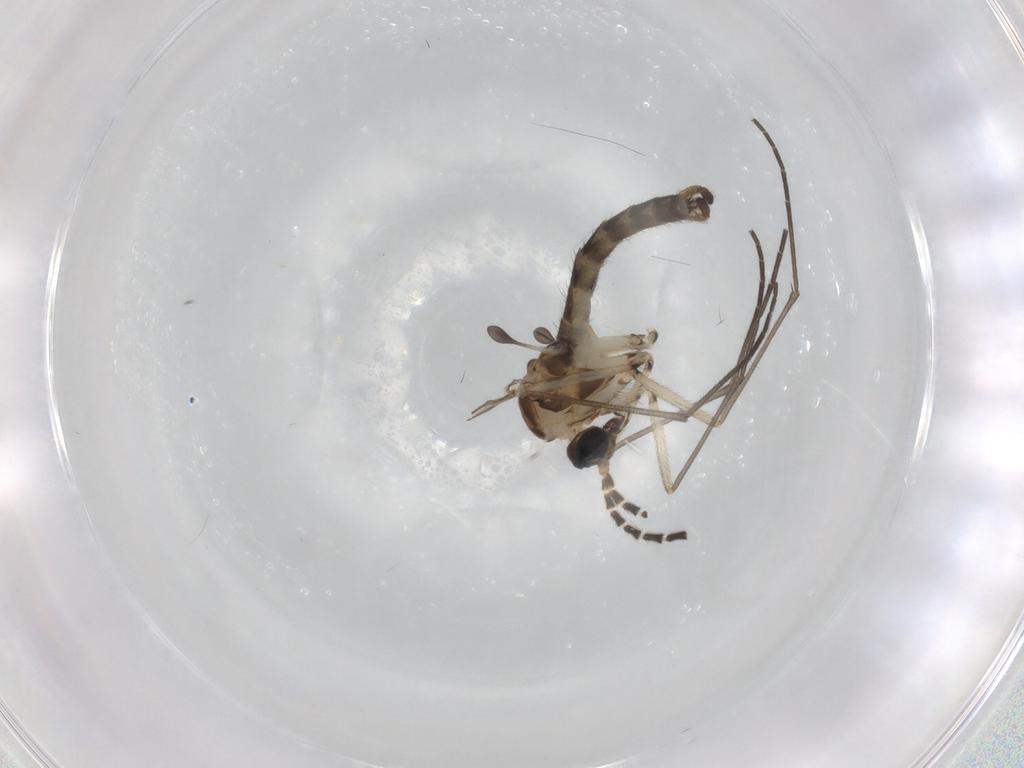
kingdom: Animalia
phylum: Arthropoda
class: Insecta
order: Diptera
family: Sciaridae
